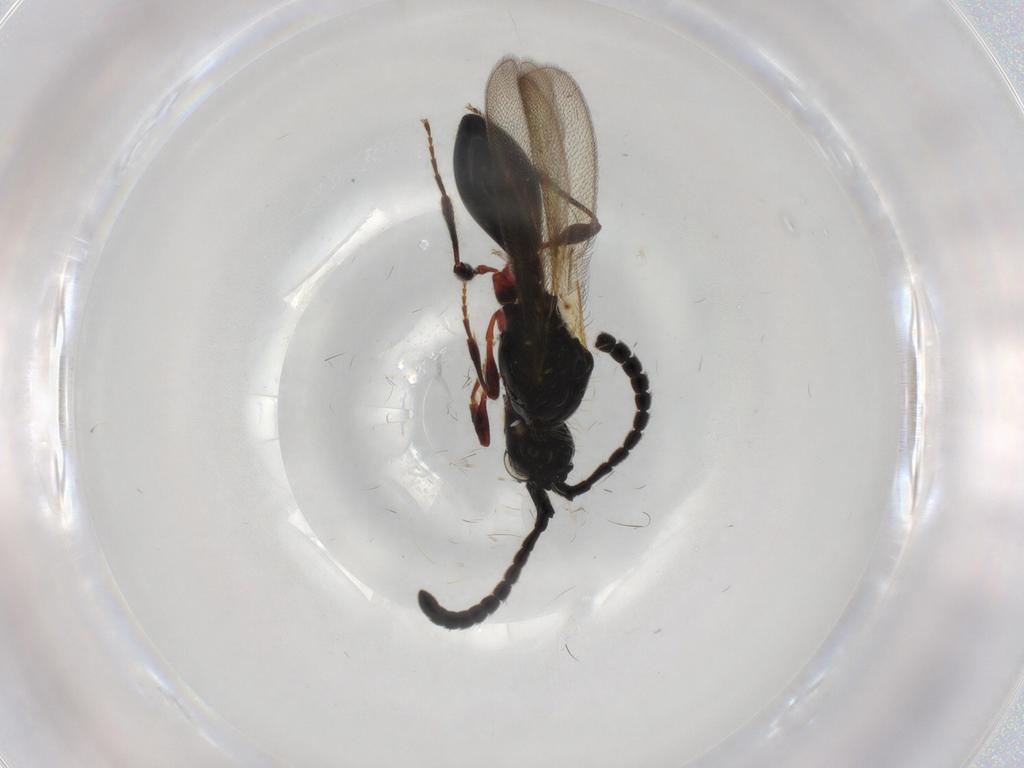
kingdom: Animalia
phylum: Arthropoda
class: Insecta
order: Hymenoptera
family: Diapriidae
